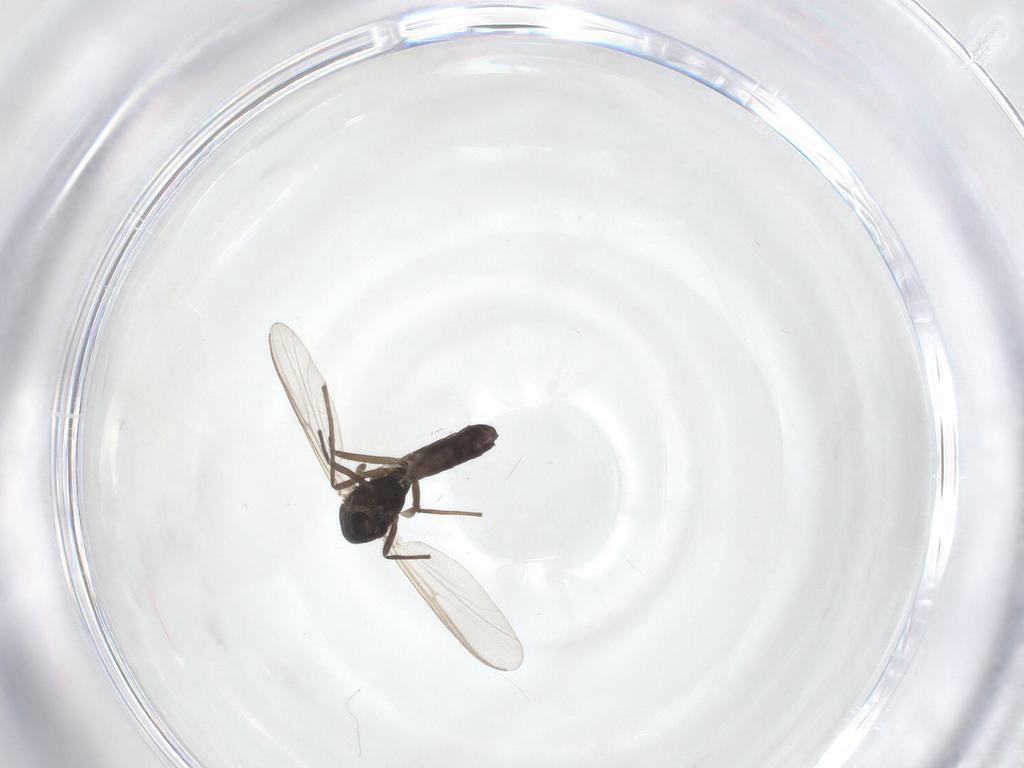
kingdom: Animalia
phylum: Arthropoda
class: Insecta
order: Diptera
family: Chironomidae
